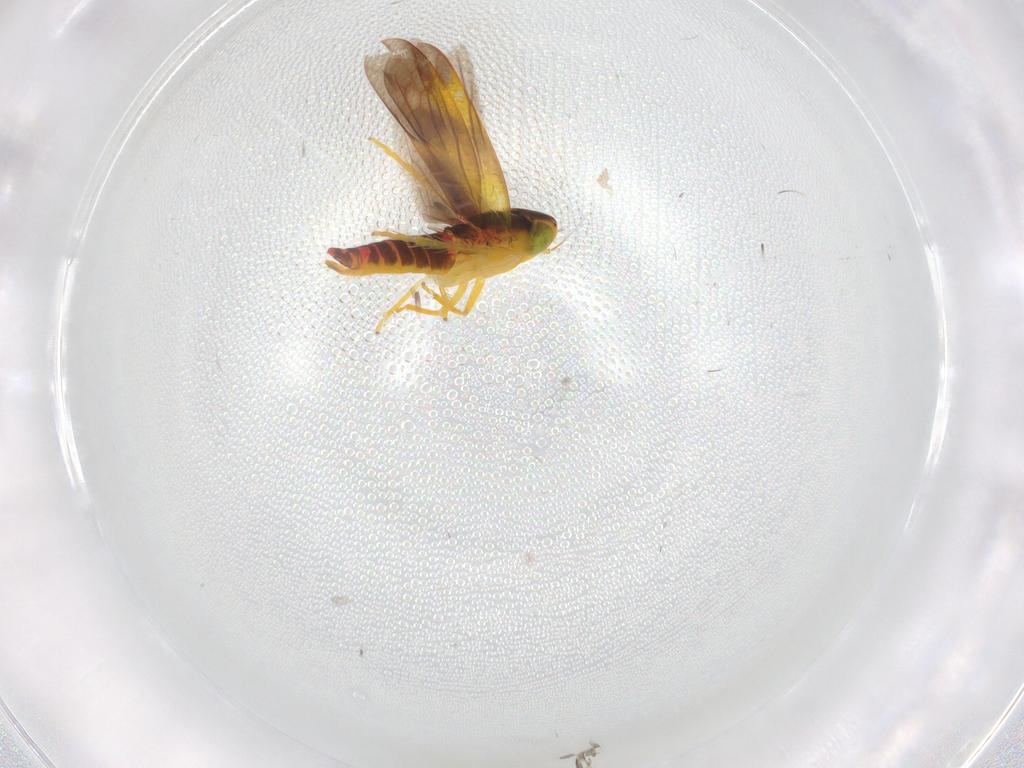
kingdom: Animalia
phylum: Arthropoda
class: Insecta
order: Hemiptera
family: Cicadellidae
